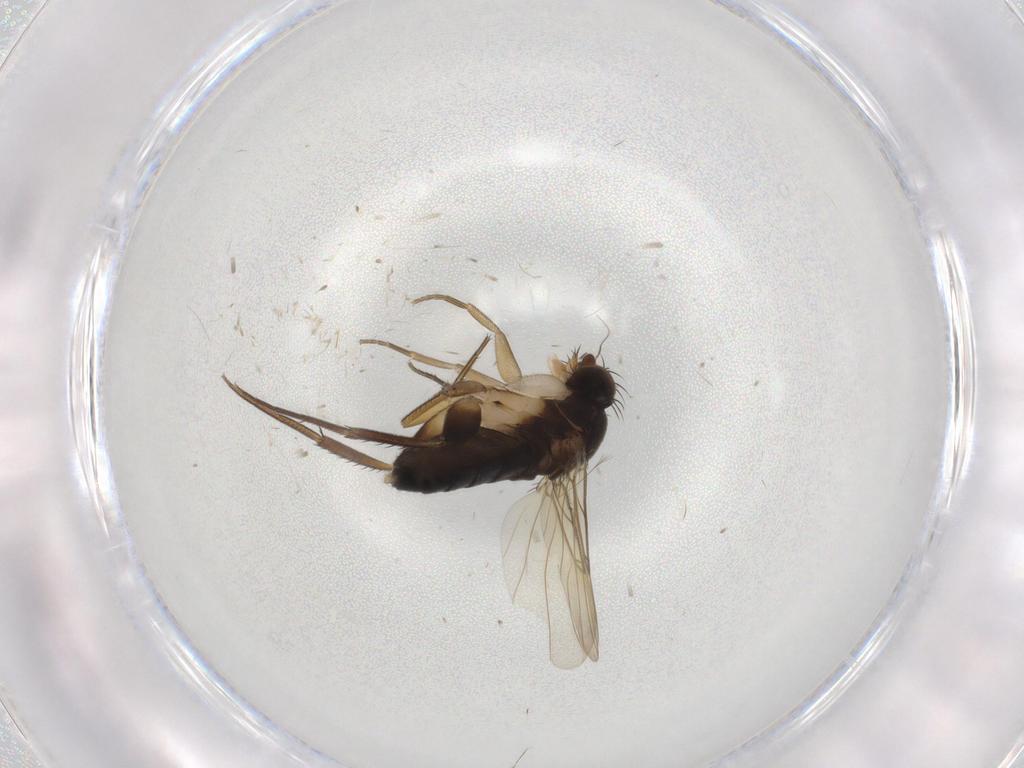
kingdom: Animalia
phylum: Arthropoda
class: Insecta
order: Diptera
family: Phoridae
